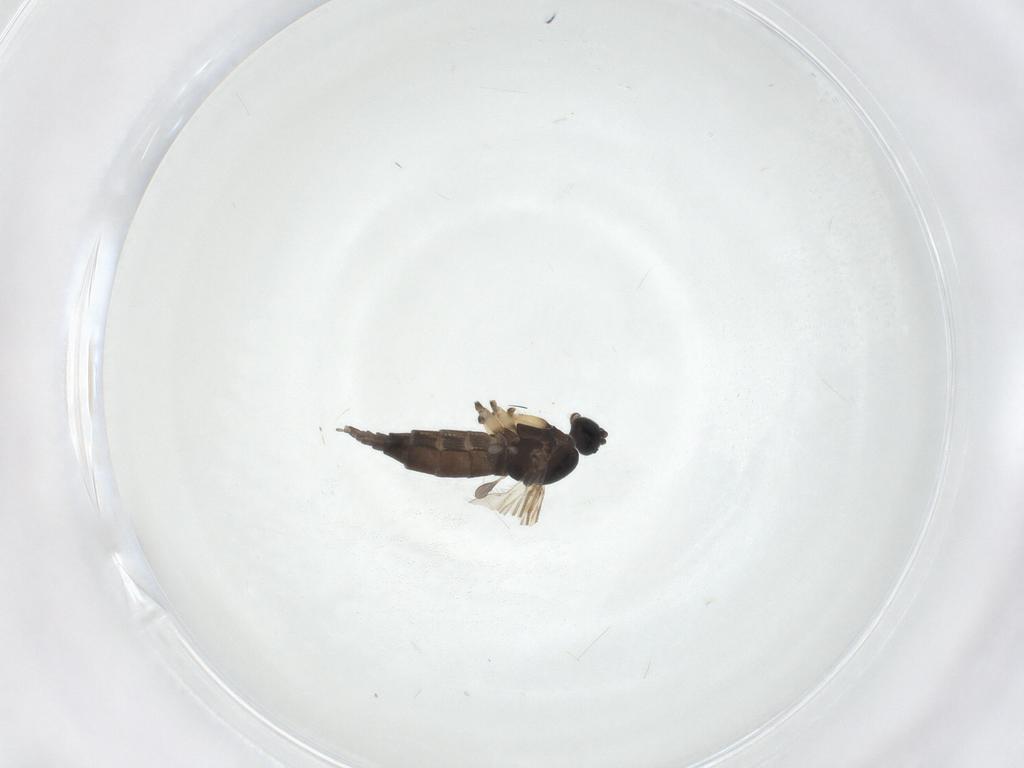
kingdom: Animalia
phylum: Arthropoda
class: Insecta
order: Diptera
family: Sciaridae
